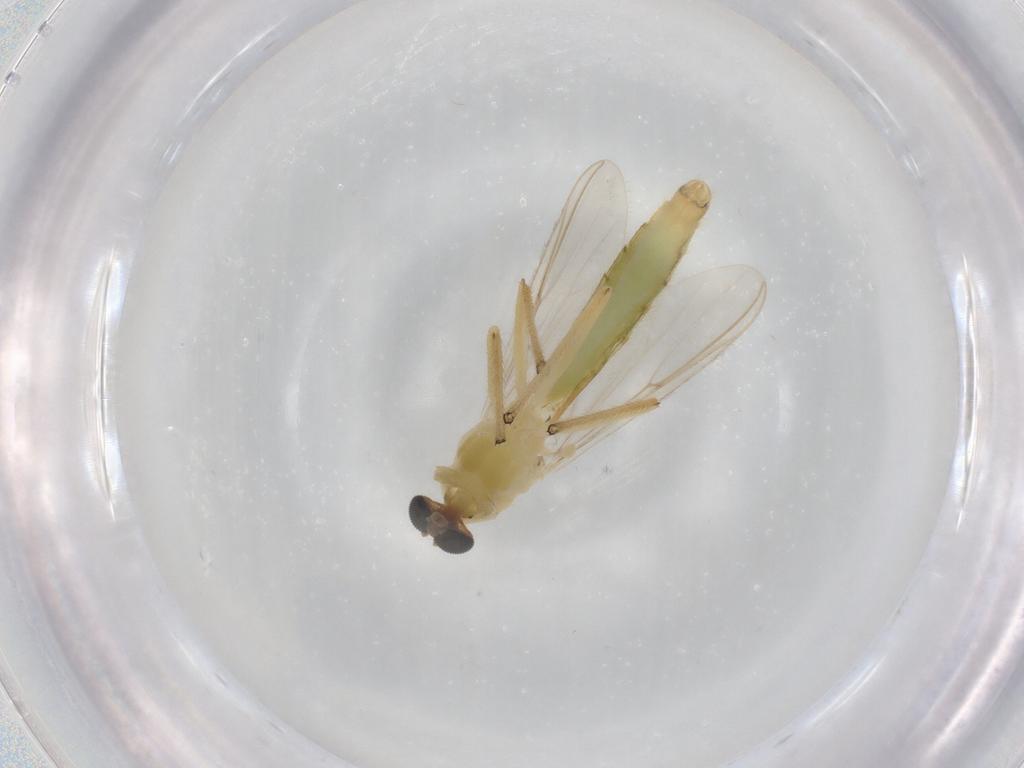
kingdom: Animalia
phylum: Arthropoda
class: Insecta
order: Diptera
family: Chironomidae
